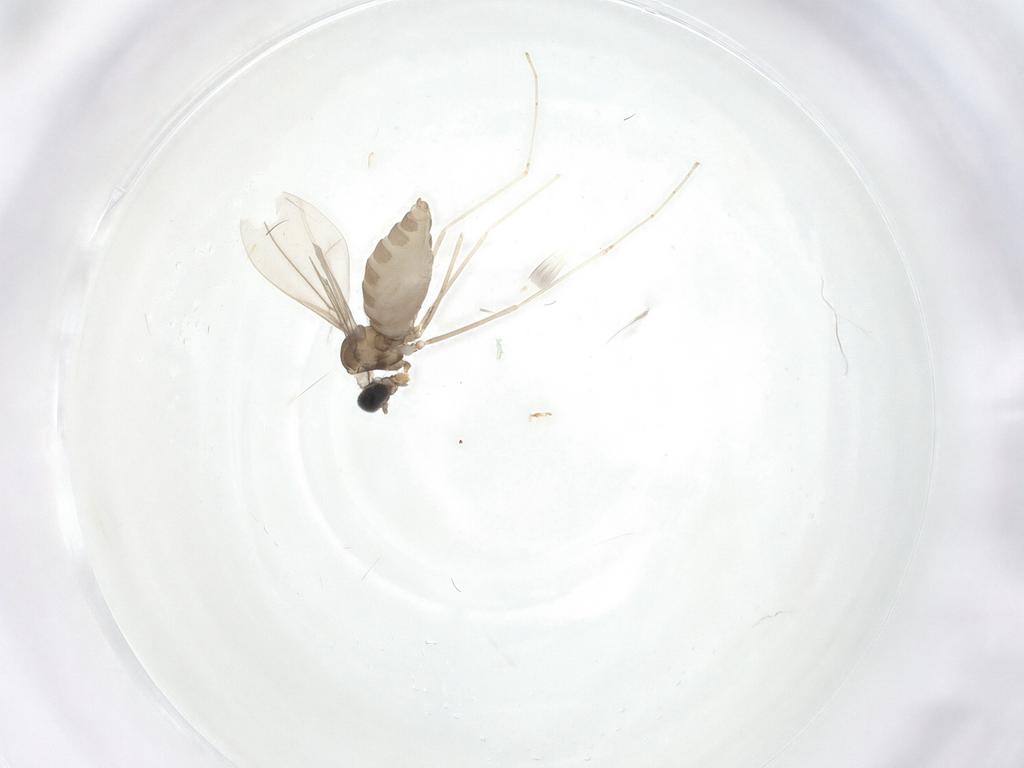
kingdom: Animalia
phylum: Arthropoda
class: Insecta
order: Diptera
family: Cecidomyiidae
